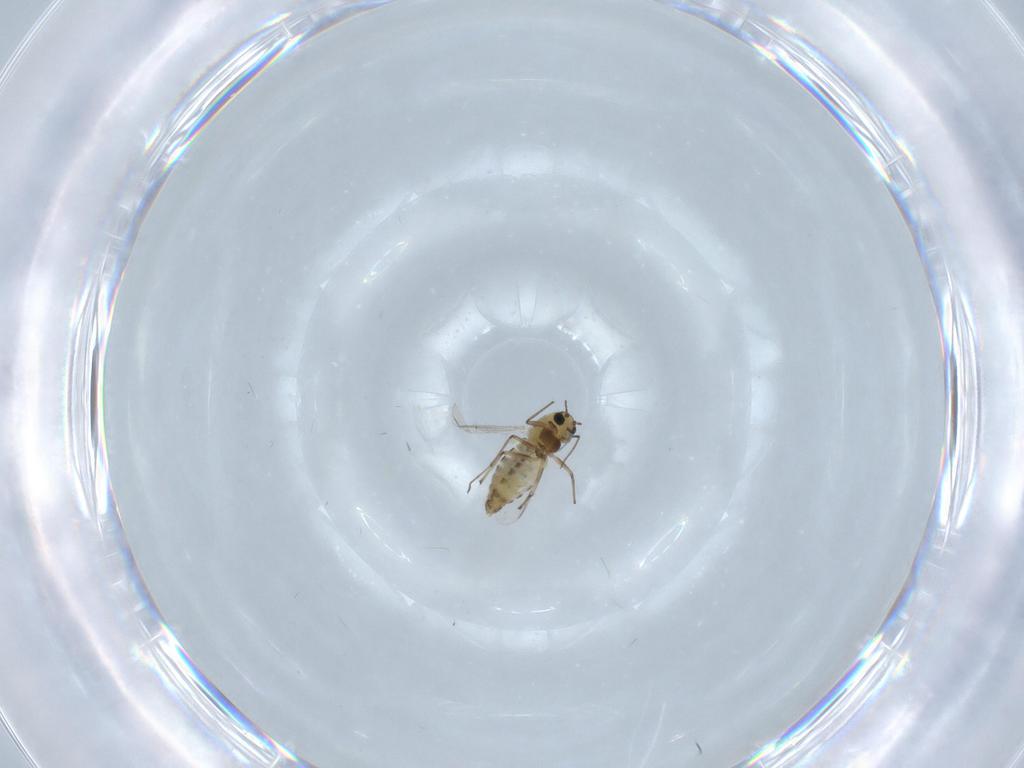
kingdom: Animalia
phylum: Arthropoda
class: Insecta
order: Diptera
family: Chironomidae
